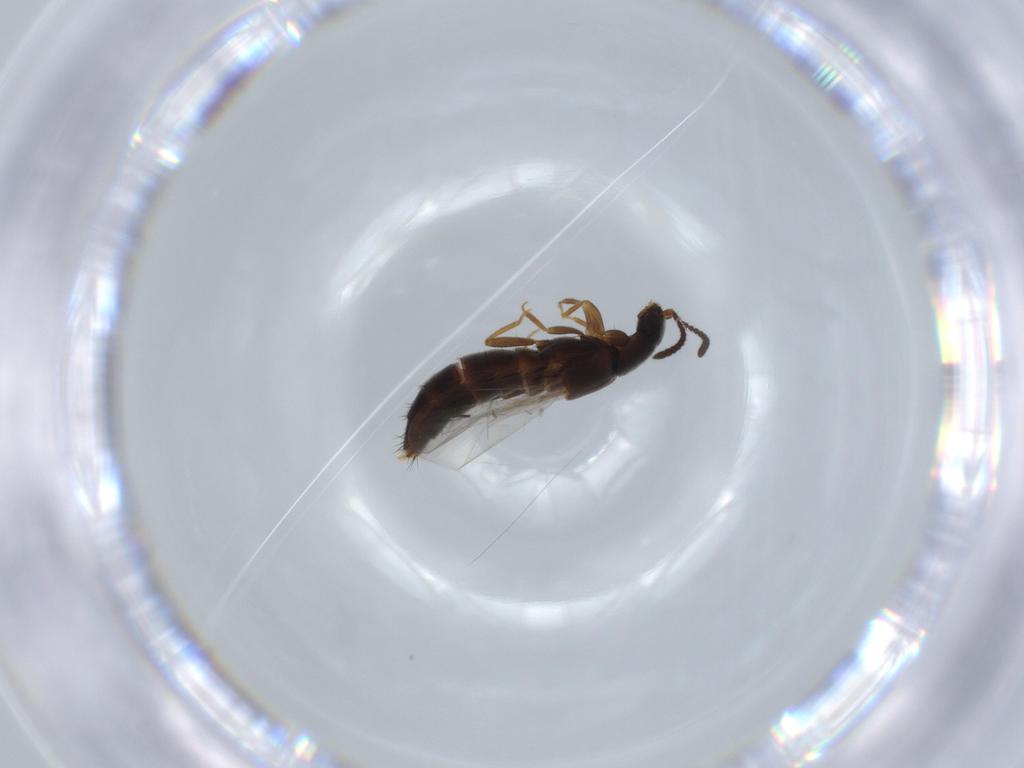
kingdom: Animalia
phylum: Arthropoda
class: Insecta
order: Coleoptera
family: Staphylinidae
